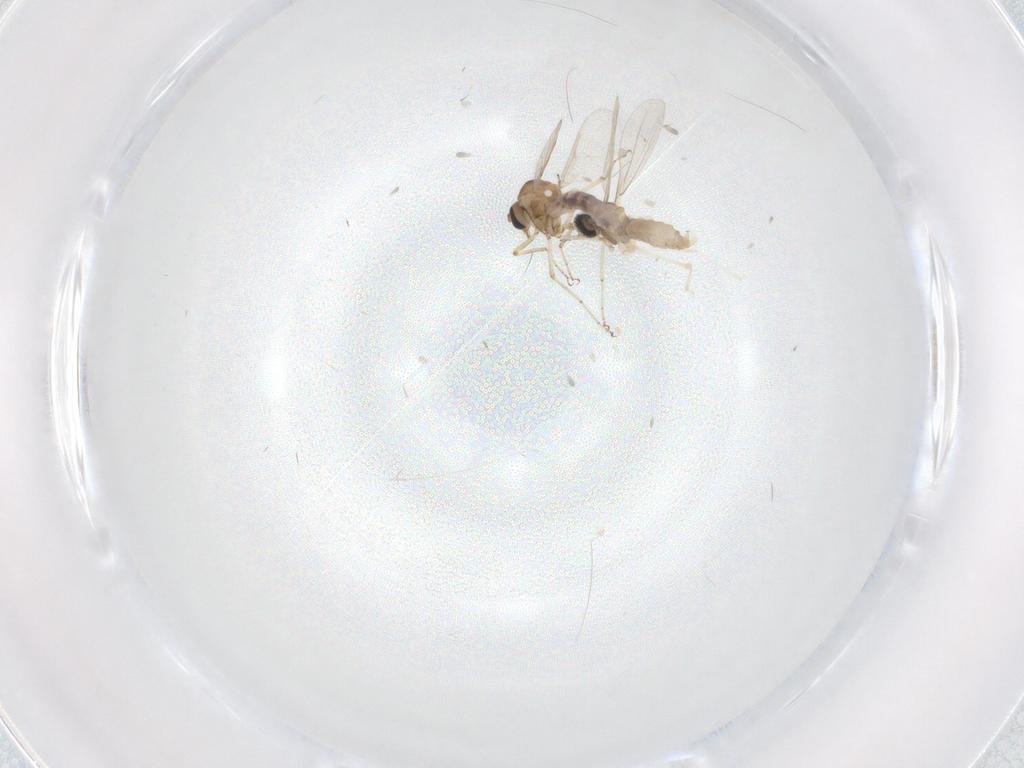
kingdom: Animalia
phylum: Arthropoda
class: Insecta
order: Diptera
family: Cecidomyiidae
